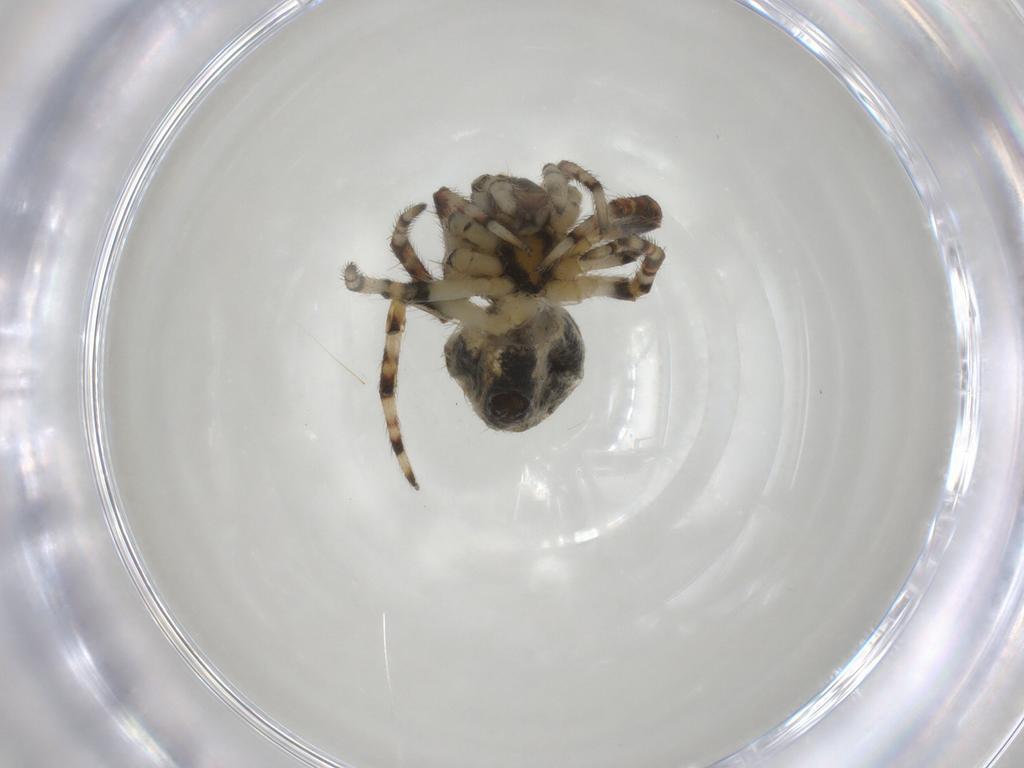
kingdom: Animalia
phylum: Arthropoda
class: Arachnida
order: Araneae
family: Araneidae
